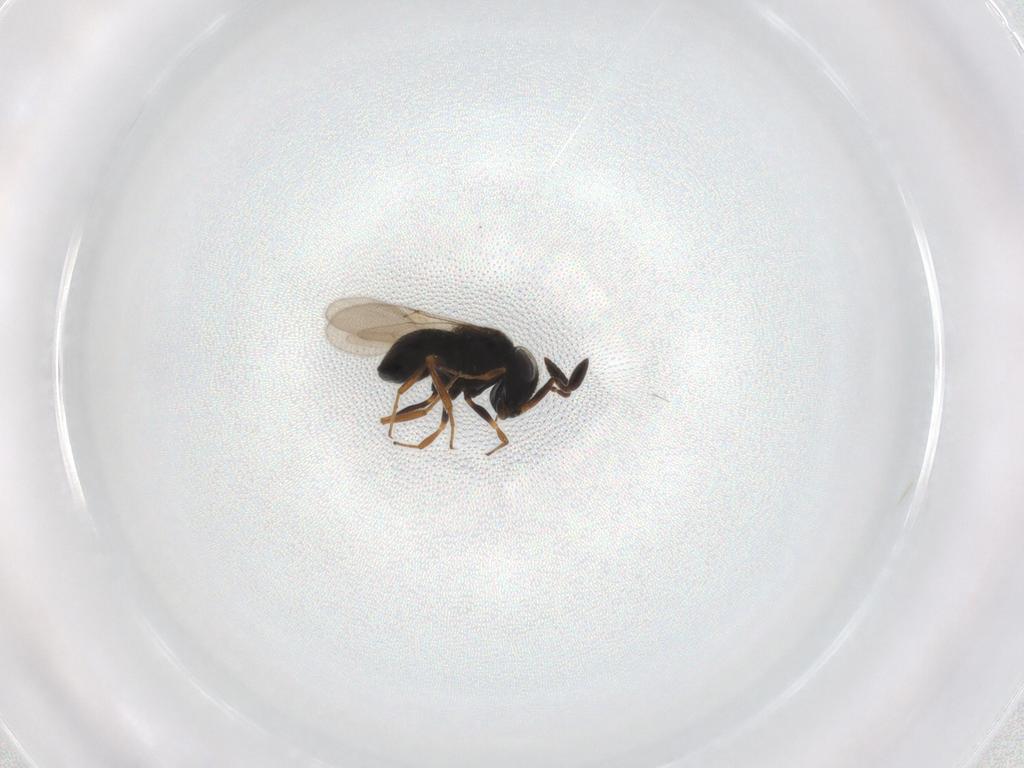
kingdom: Animalia
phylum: Arthropoda
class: Insecta
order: Hymenoptera
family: Scelionidae
